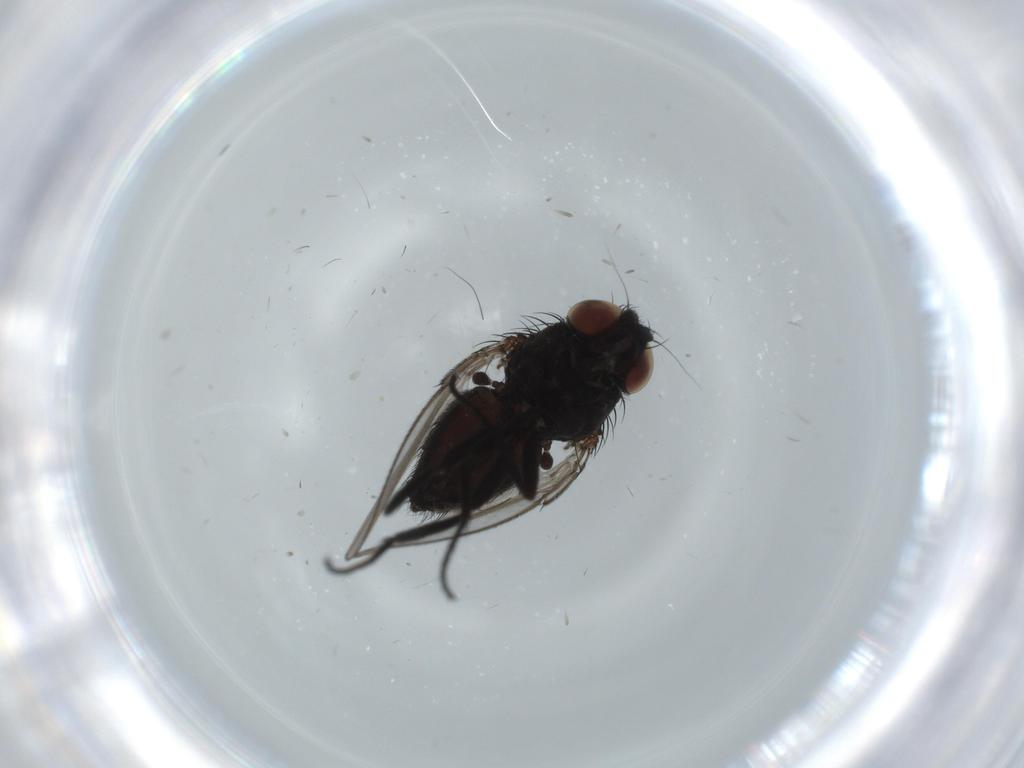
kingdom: Animalia
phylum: Arthropoda
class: Insecta
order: Diptera
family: Milichiidae
